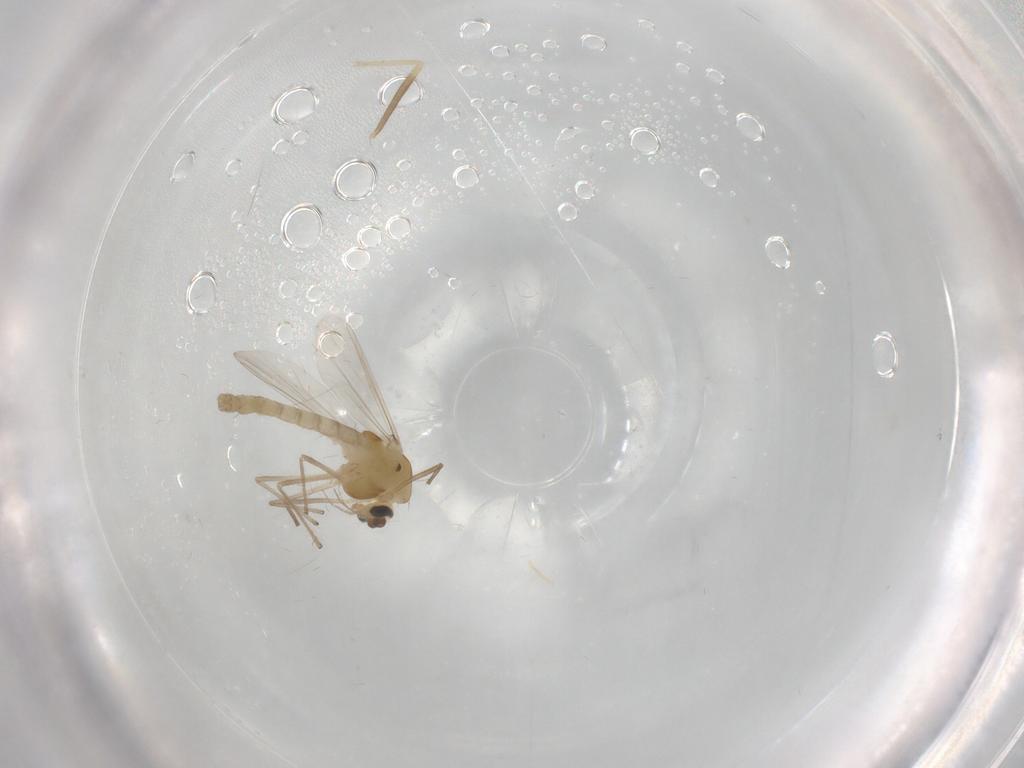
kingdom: Animalia
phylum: Arthropoda
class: Insecta
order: Diptera
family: Chironomidae
